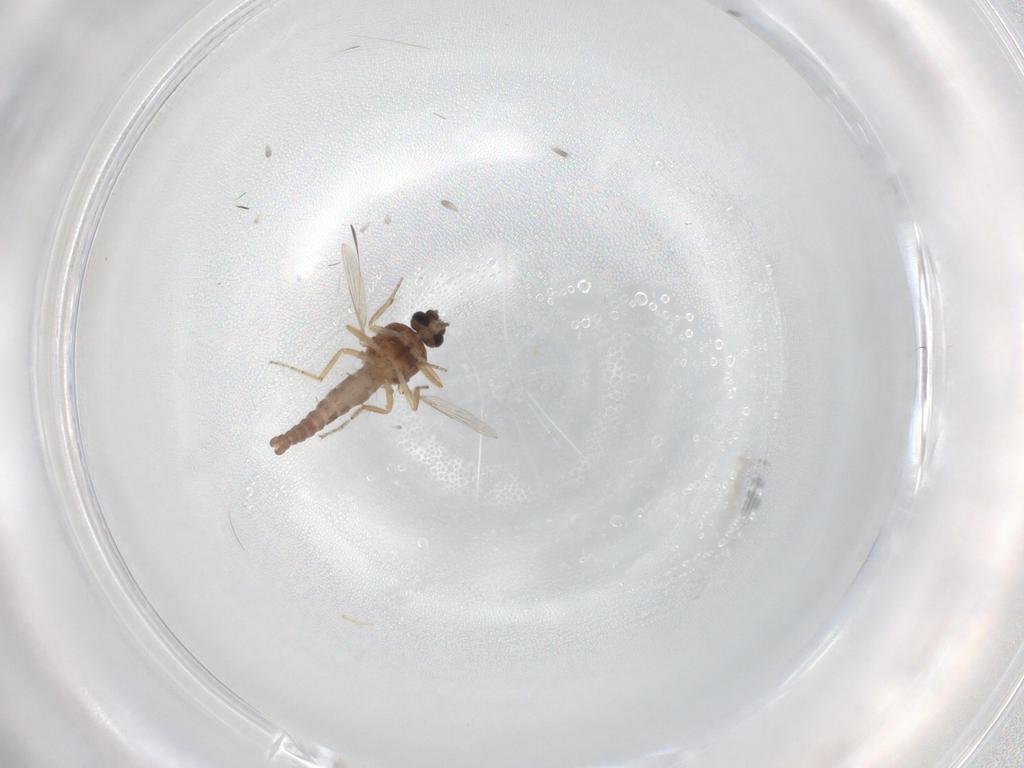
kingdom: Animalia
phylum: Arthropoda
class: Insecta
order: Diptera
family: Ceratopogonidae
